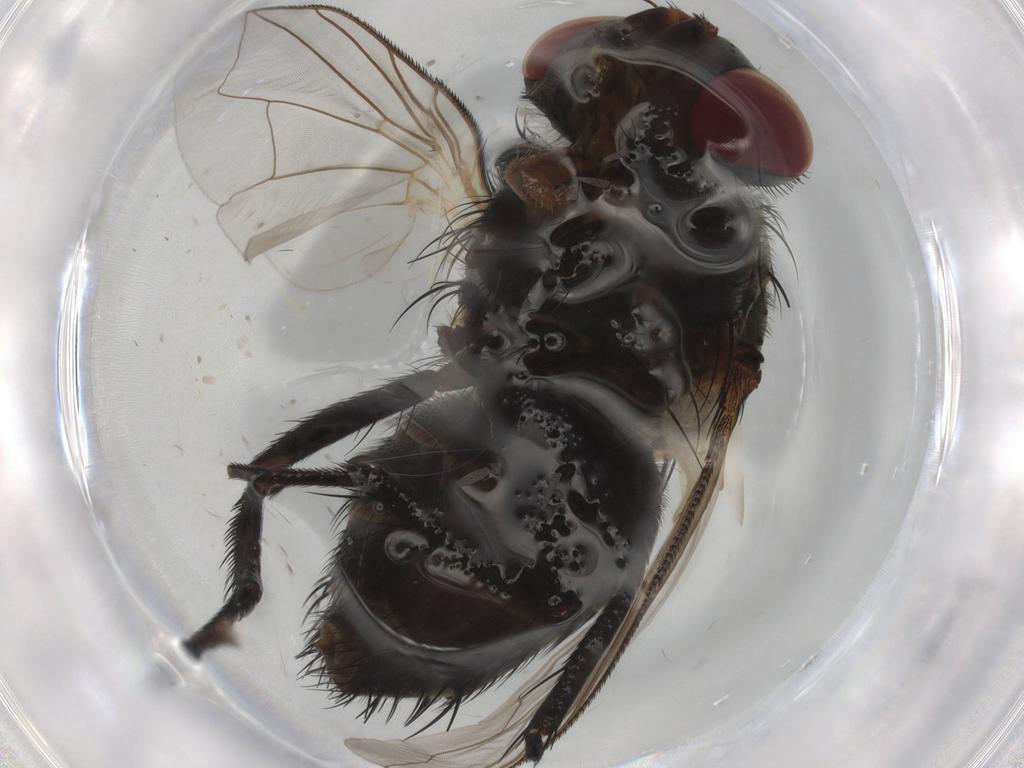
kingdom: Animalia
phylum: Arthropoda
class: Insecta
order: Diptera
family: Tachinidae
